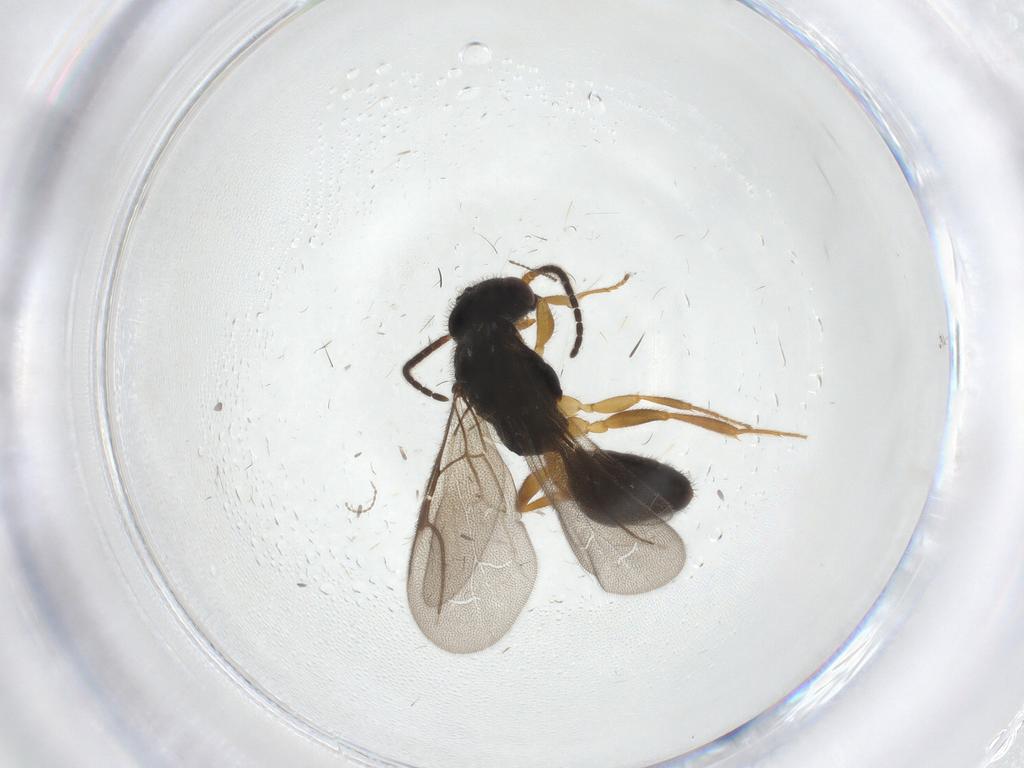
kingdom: Animalia
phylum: Arthropoda
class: Insecta
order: Hymenoptera
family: Bethylidae
